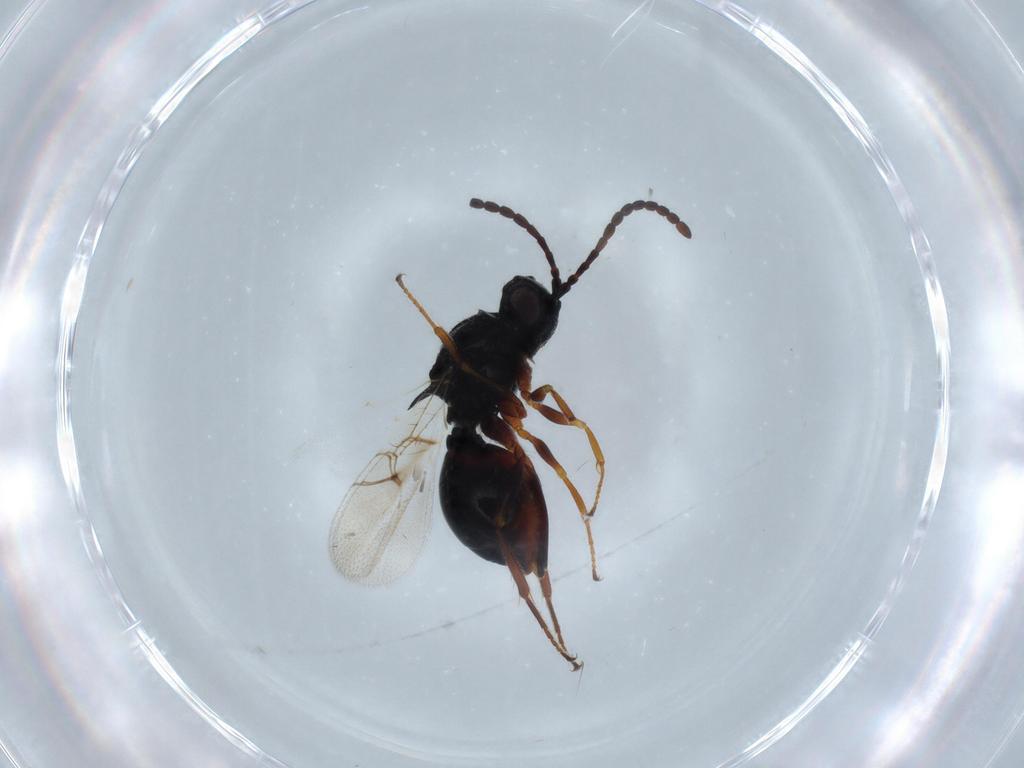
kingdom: Animalia
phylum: Arthropoda
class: Insecta
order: Hymenoptera
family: Figitidae
